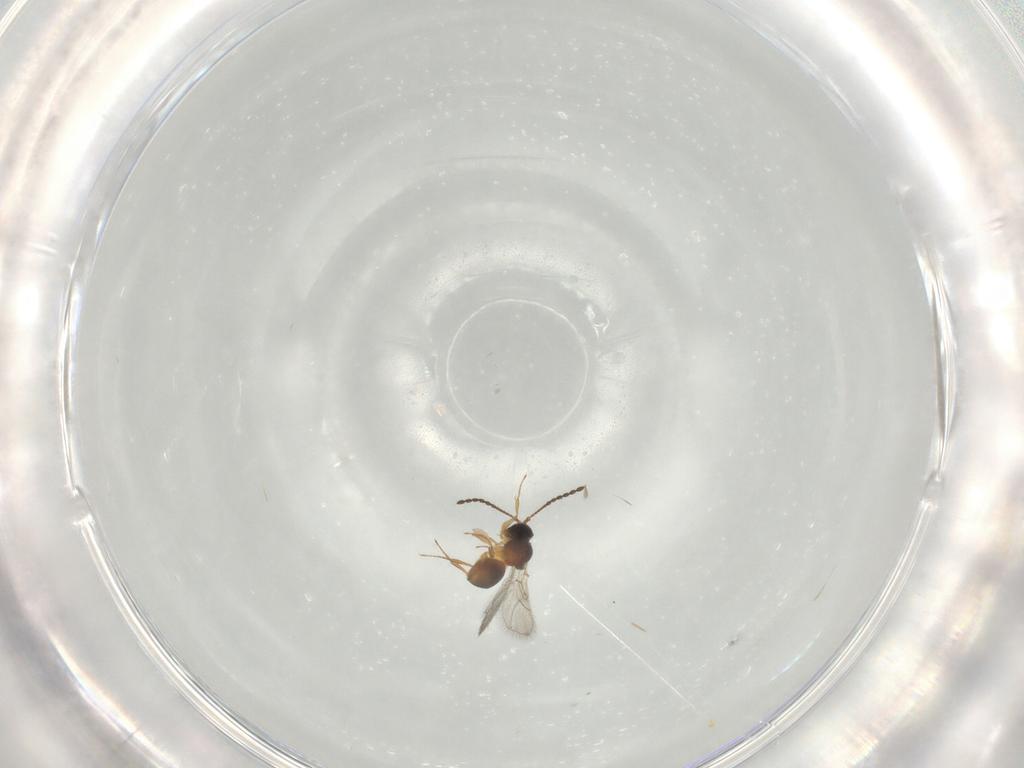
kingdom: Animalia
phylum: Arthropoda
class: Insecta
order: Hymenoptera
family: Figitidae
